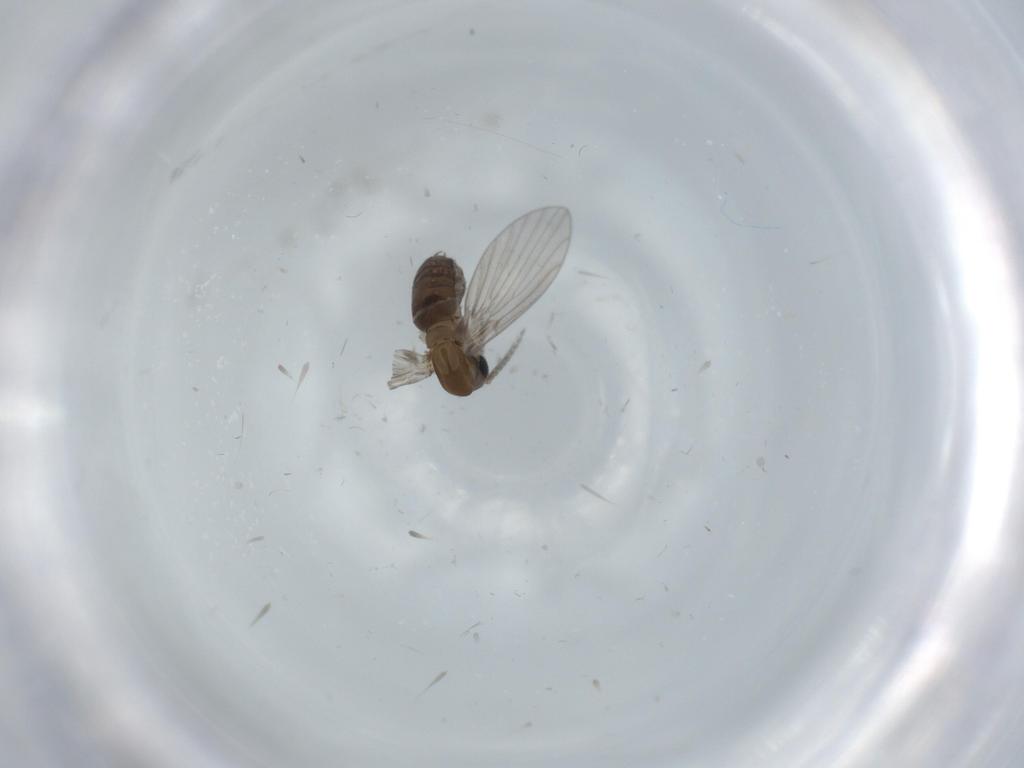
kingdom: Animalia
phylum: Arthropoda
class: Insecta
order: Diptera
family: Psychodidae
